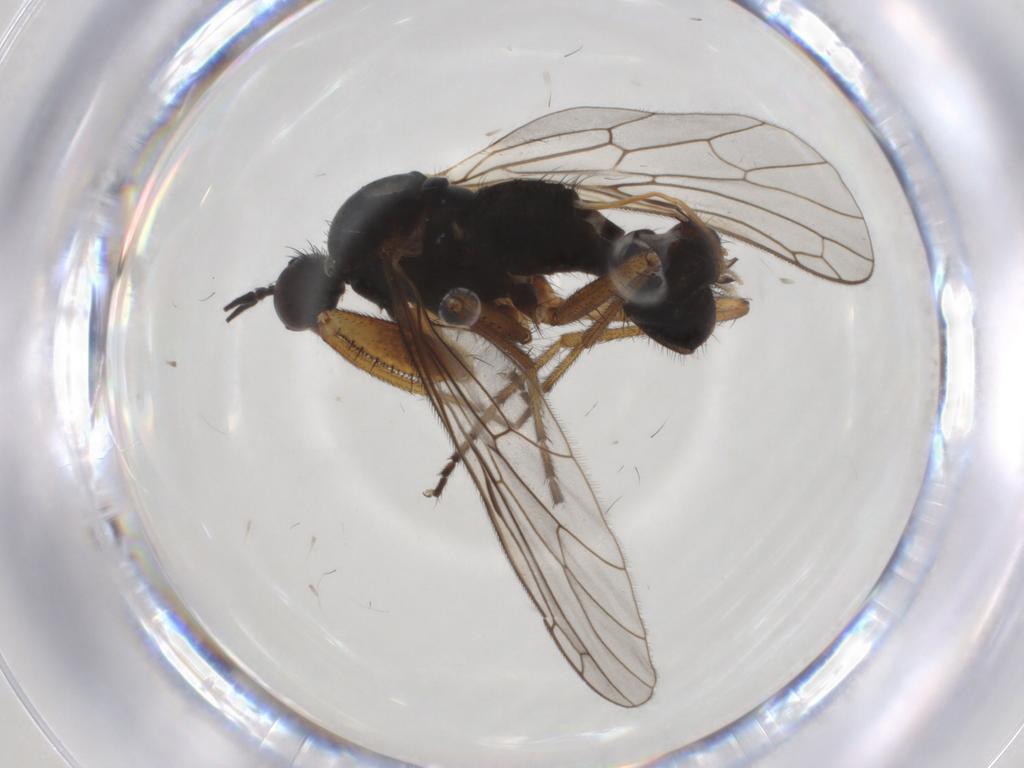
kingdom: Animalia
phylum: Arthropoda
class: Insecta
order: Diptera
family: Empididae
